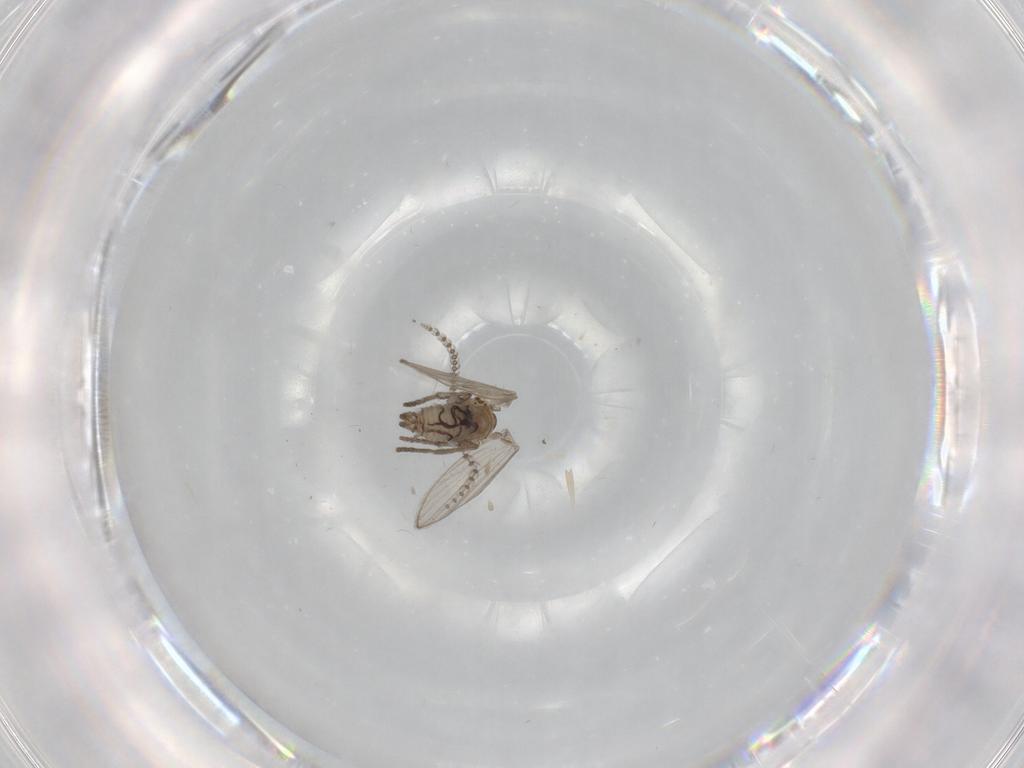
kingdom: Animalia
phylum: Arthropoda
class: Insecta
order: Diptera
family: Psychodidae
